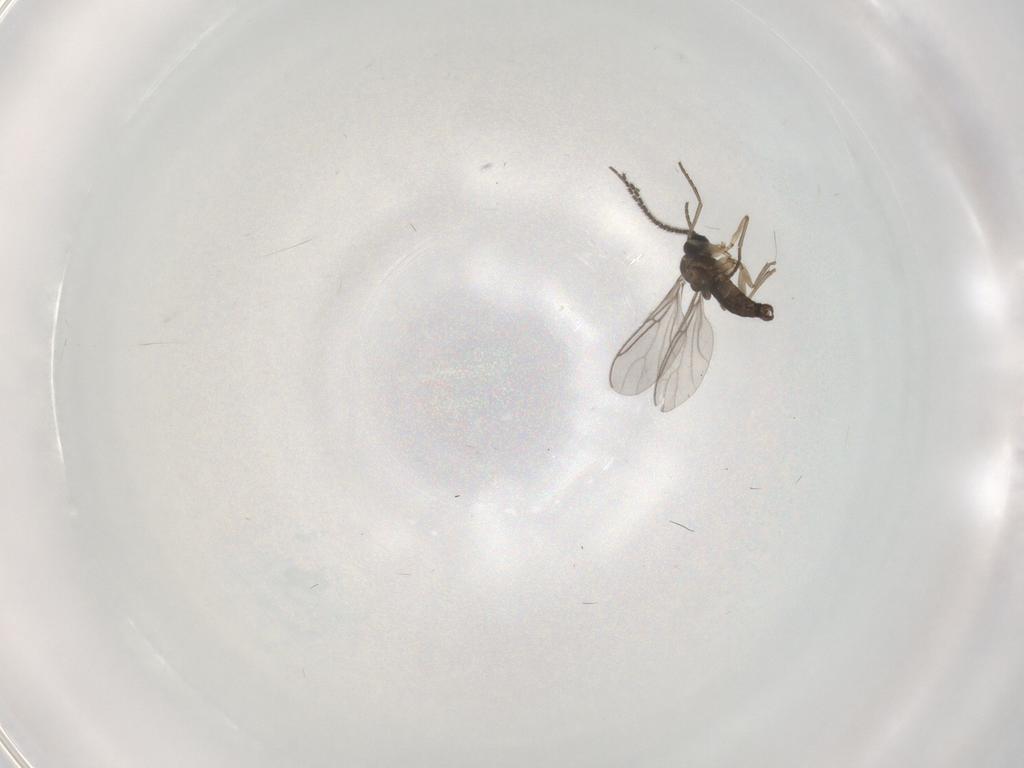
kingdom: Animalia
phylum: Arthropoda
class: Insecta
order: Diptera
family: Sciaridae
